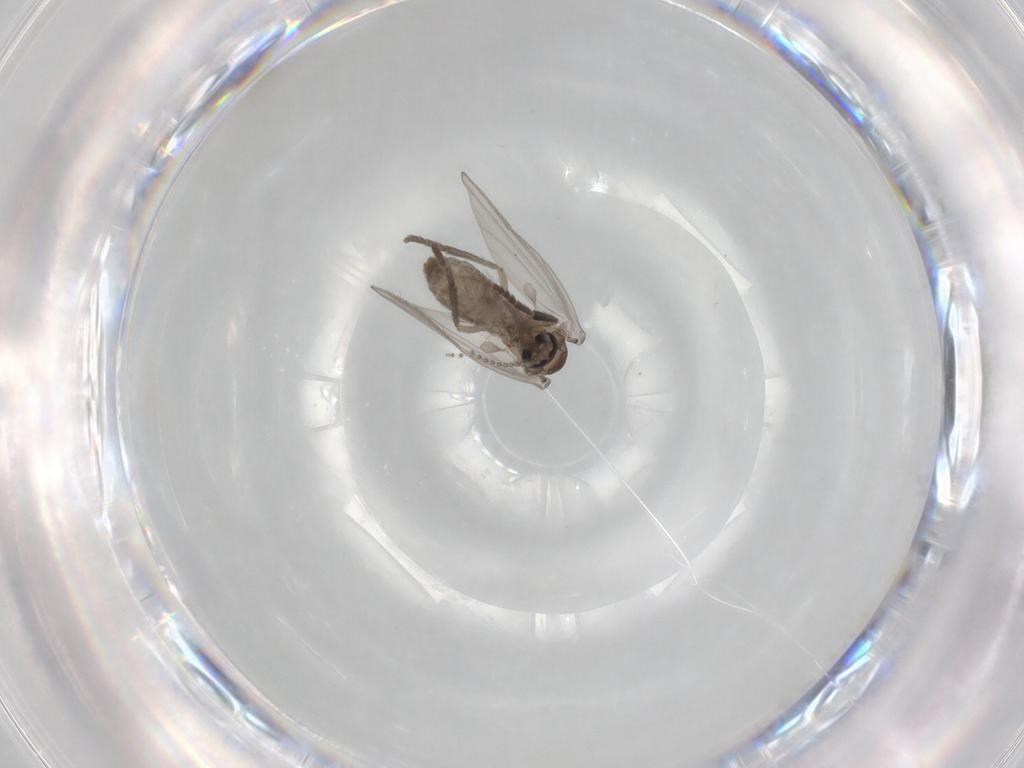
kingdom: Animalia
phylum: Arthropoda
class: Insecta
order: Diptera
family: Psychodidae
